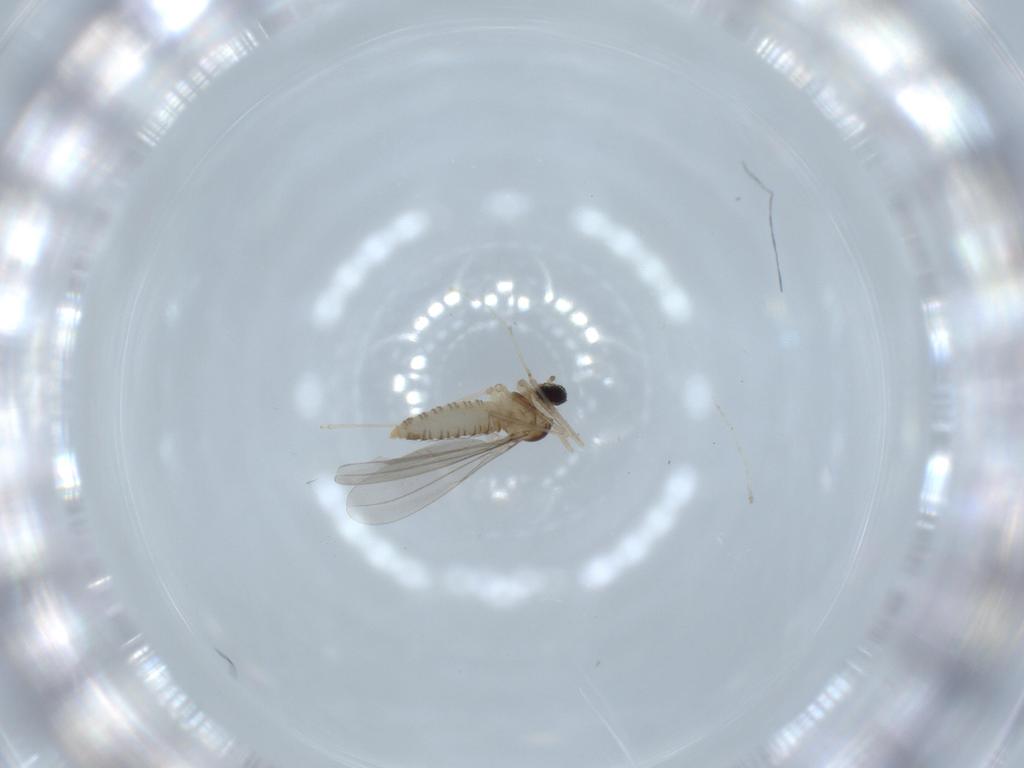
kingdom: Animalia
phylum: Arthropoda
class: Insecta
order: Diptera
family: Cecidomyiidae
